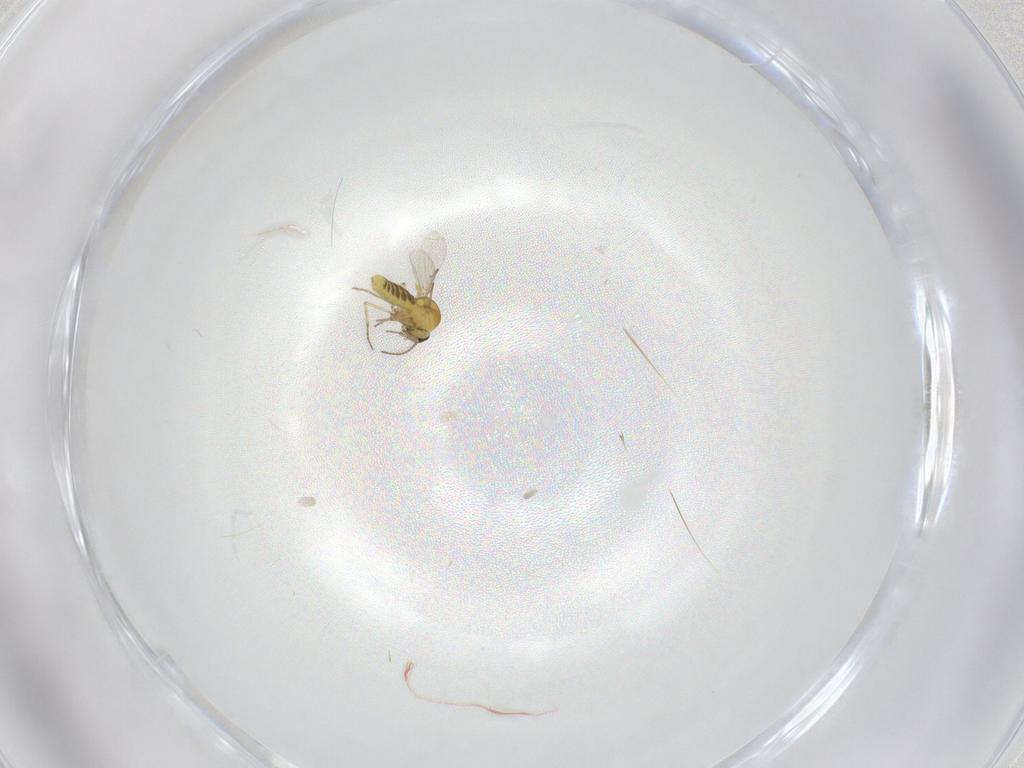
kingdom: Animalia
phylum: Arthropoda
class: Insecta
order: Diptera
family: Ceratopogonidae
